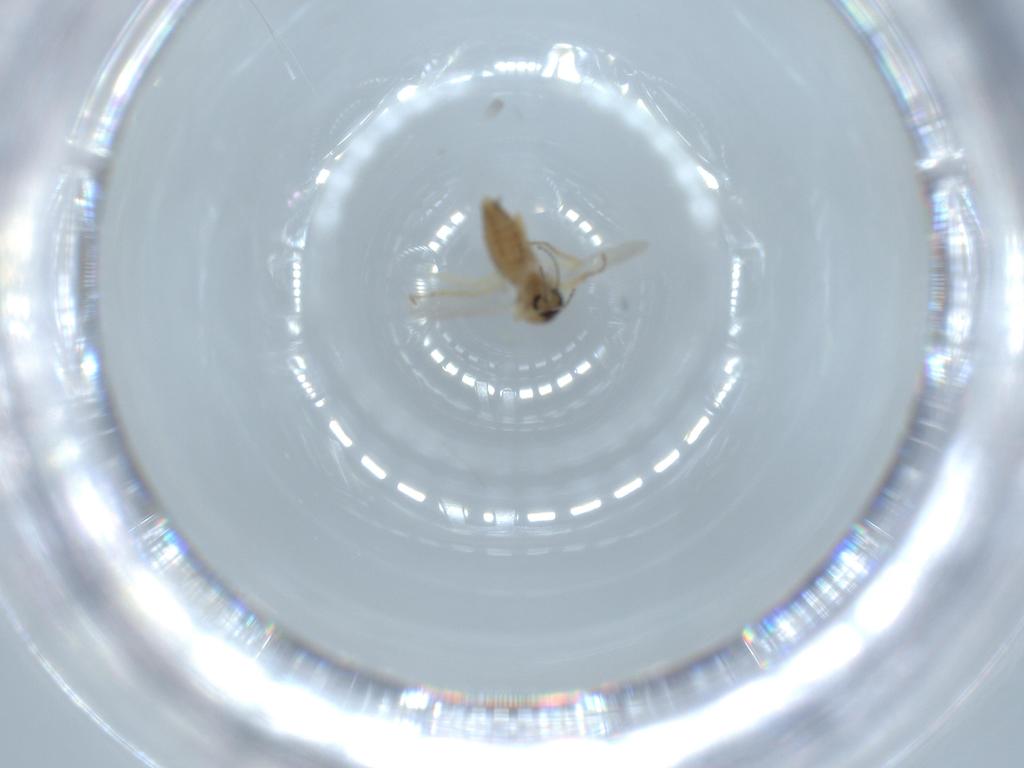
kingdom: Animalia
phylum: Arthropoda
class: Insecta
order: Diptera
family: Ceratopogonidae
